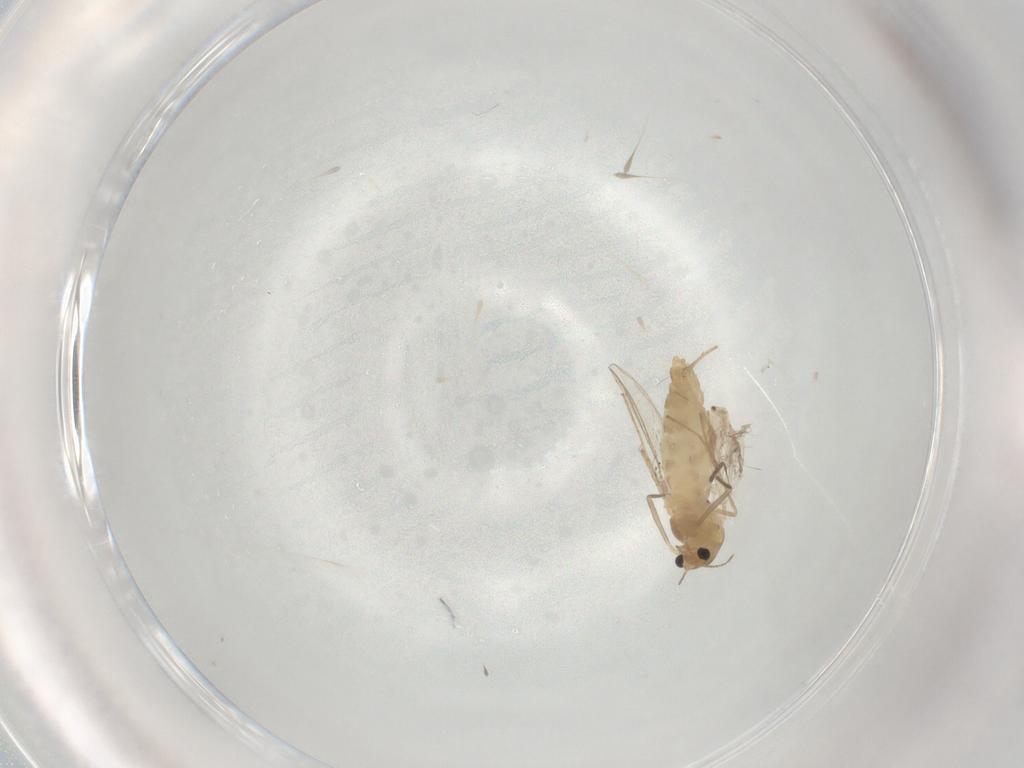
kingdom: Animalia
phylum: Arthropoda
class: Insecta
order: Diptera
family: Chironomidae
